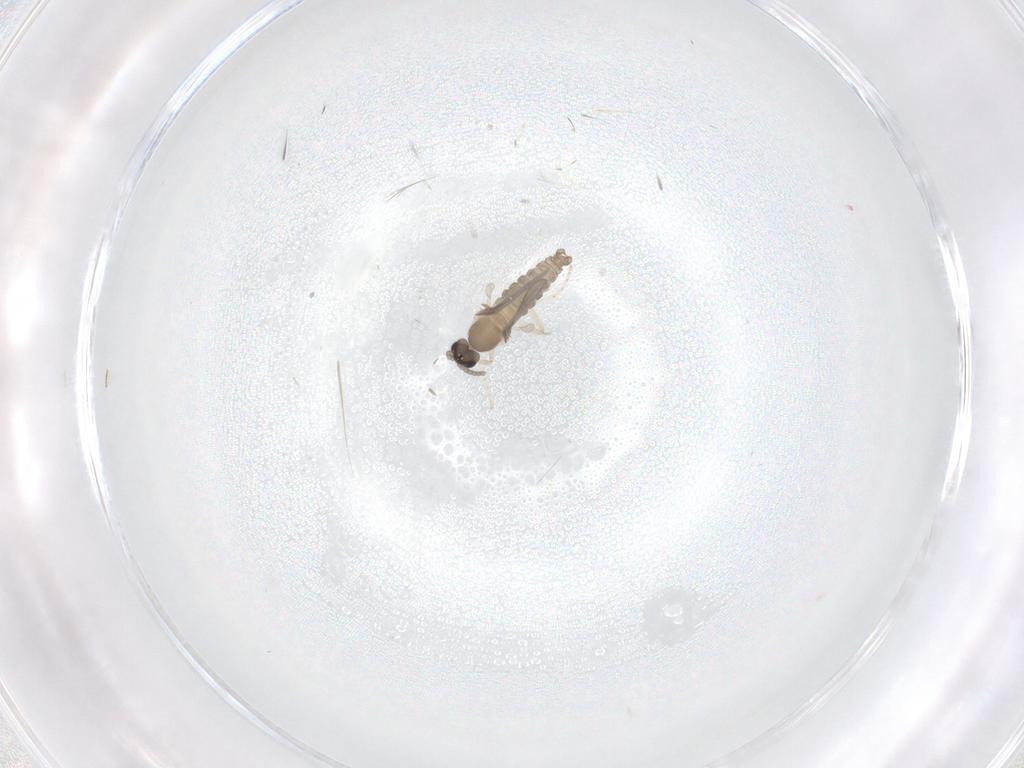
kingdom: Animalia
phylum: Arthropoda
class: Insecta
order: Diptera
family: Cecidomyiidae
